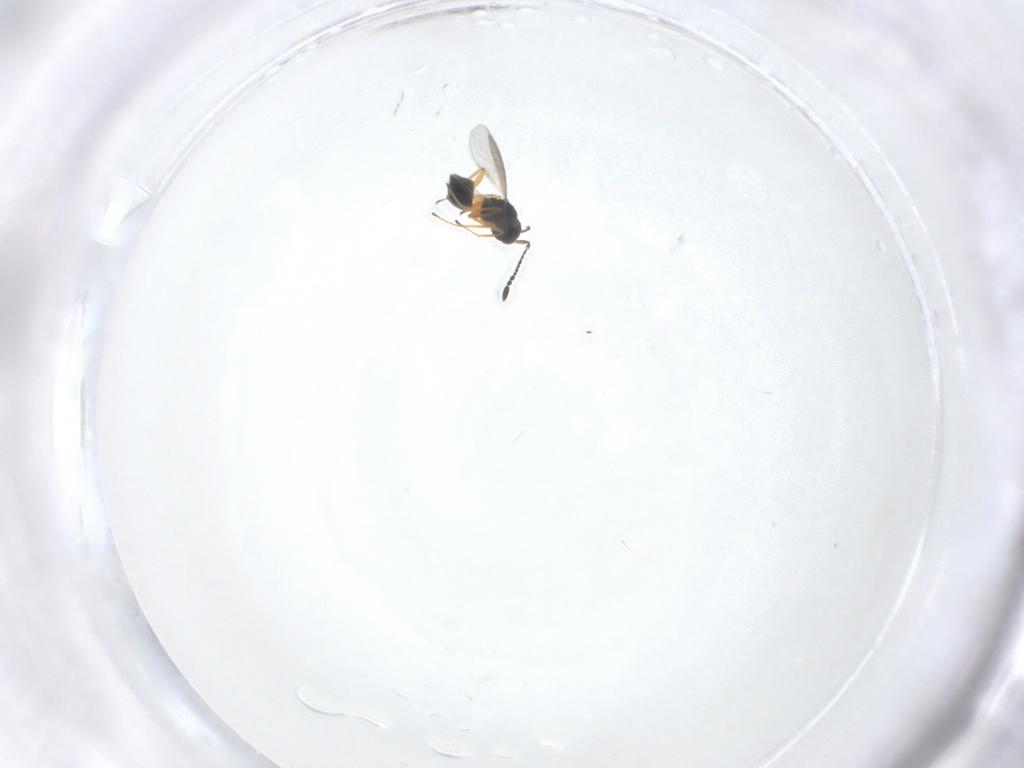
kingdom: Animalia
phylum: Arthropoda
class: Insecta
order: Hymenoptera
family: Mymaridae
